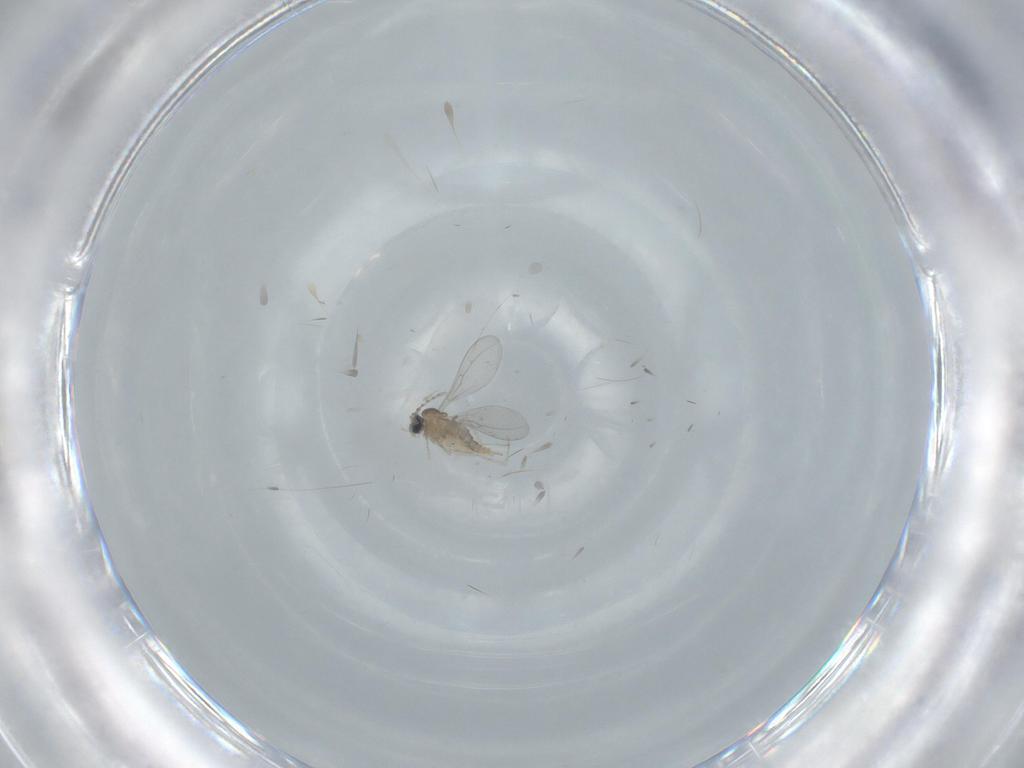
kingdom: Animalia
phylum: Arthropoda
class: Insecta
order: Diptera
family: Cecidomyiidae
